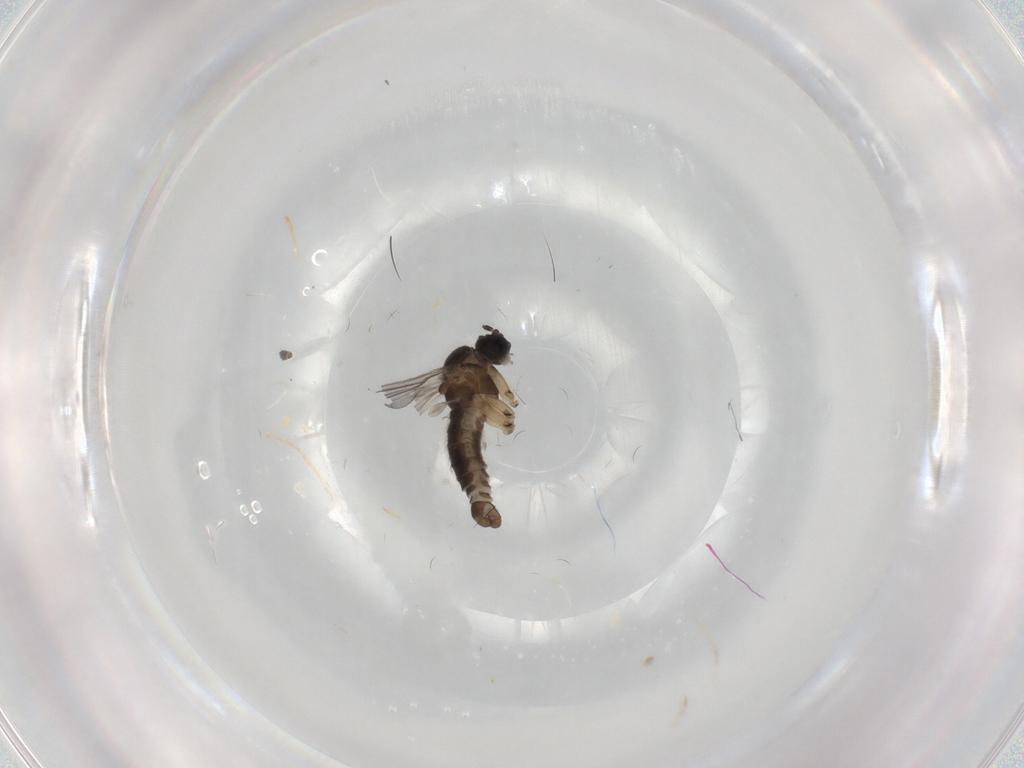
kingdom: Animalia
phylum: Arthropoda
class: Insecta
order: Diptera
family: Sciaridae
